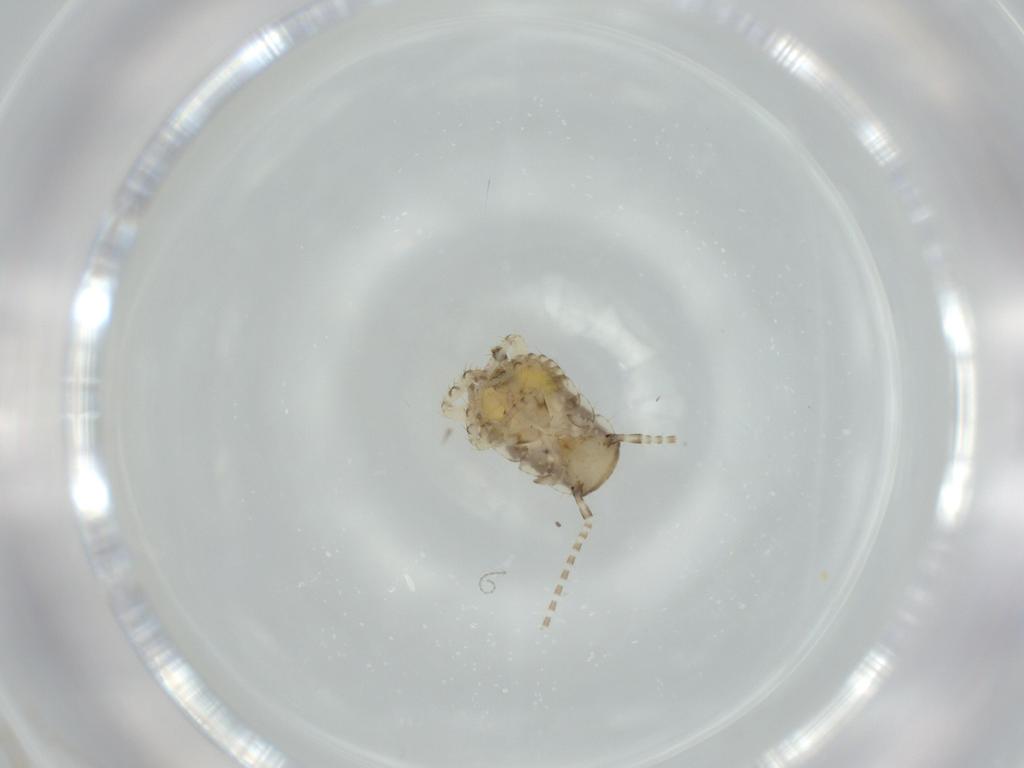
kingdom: Animalia
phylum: Arthropoda
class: Insecta
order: Blattodea
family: Ectobiidae
